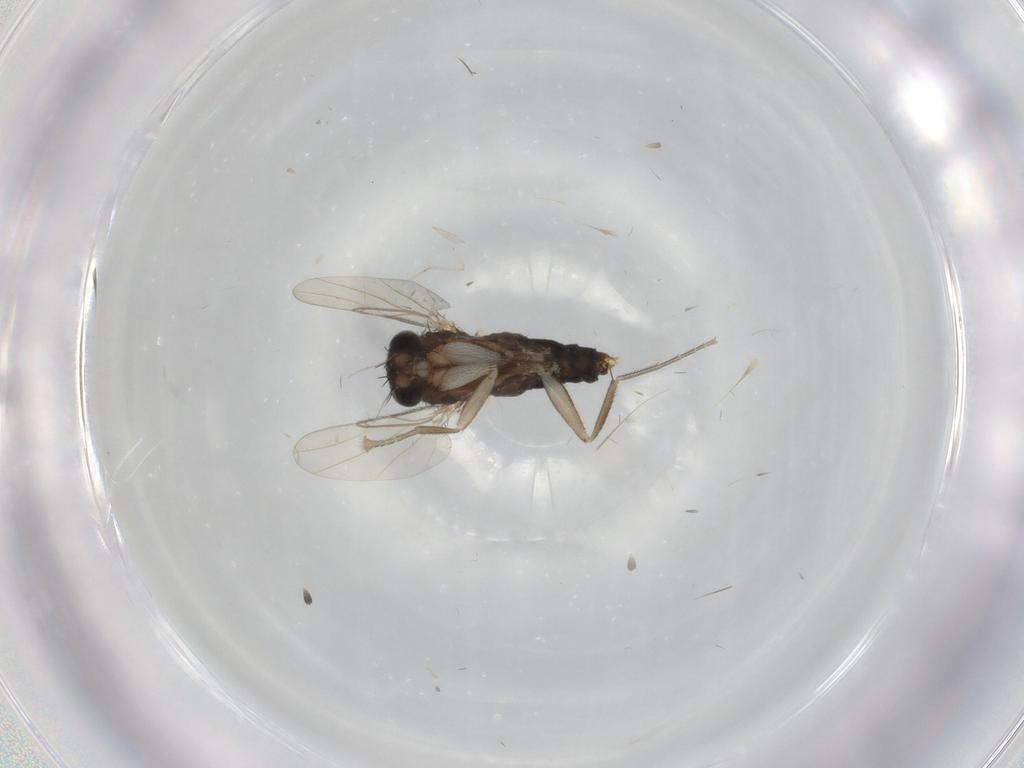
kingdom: Animalia
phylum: Arthropoda
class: Insecta
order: Diptera
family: Phoridae
